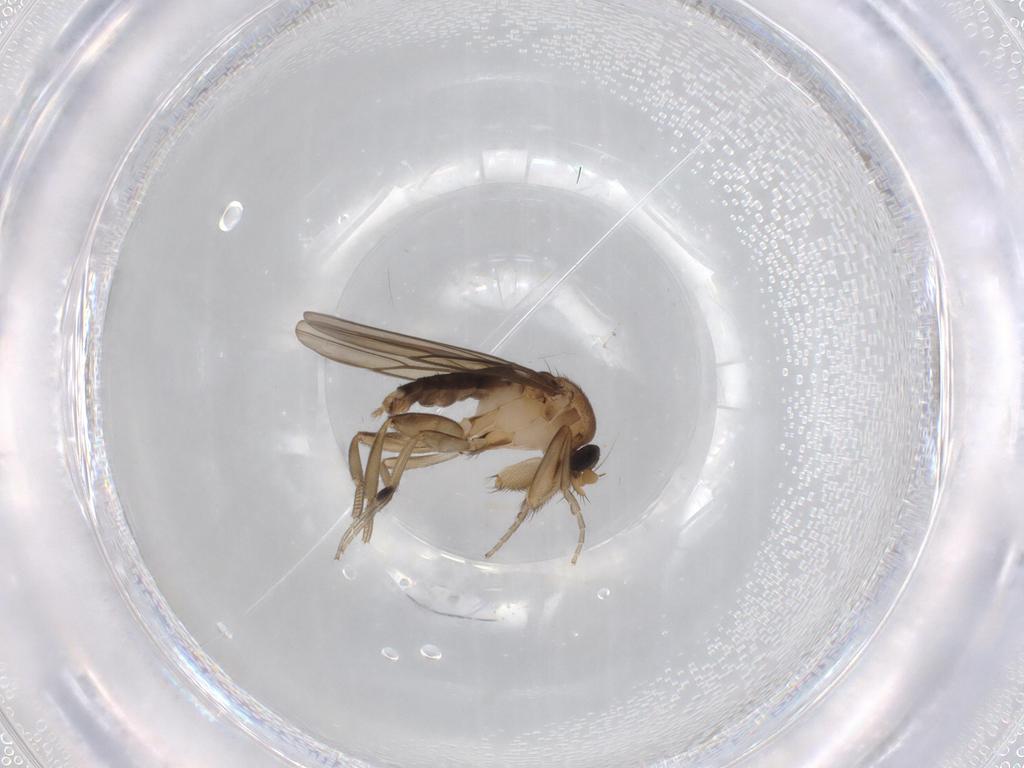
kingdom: Animalia
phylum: Arthropoda
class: Insecta
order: Diptera
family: Phoridae
